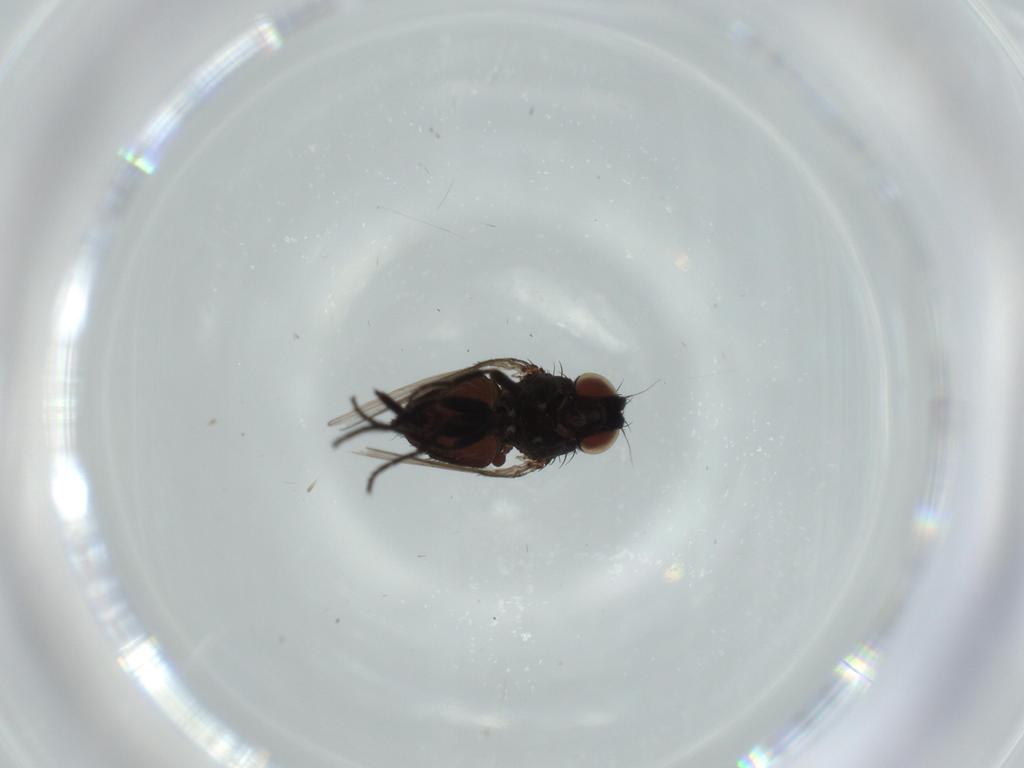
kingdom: Animalia
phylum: Arthropoda
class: Insecta
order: Diptera
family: Milichiidae
